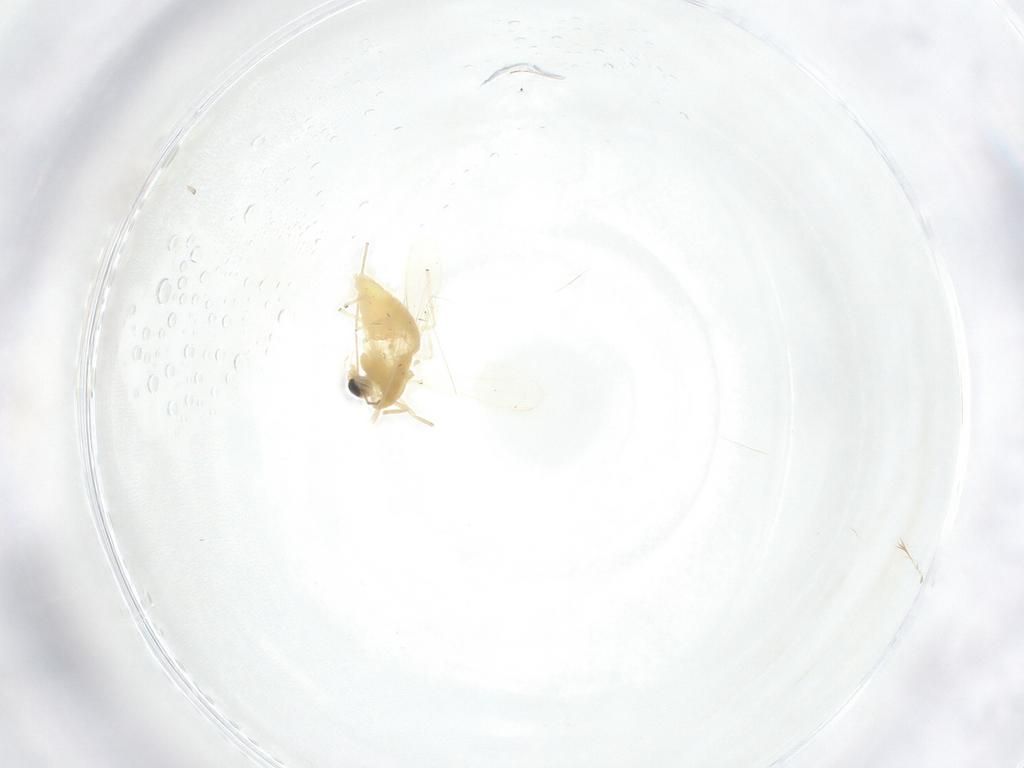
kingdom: Animalia
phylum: Arthropoda
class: Insecta
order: Diptera
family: Chironomidae
